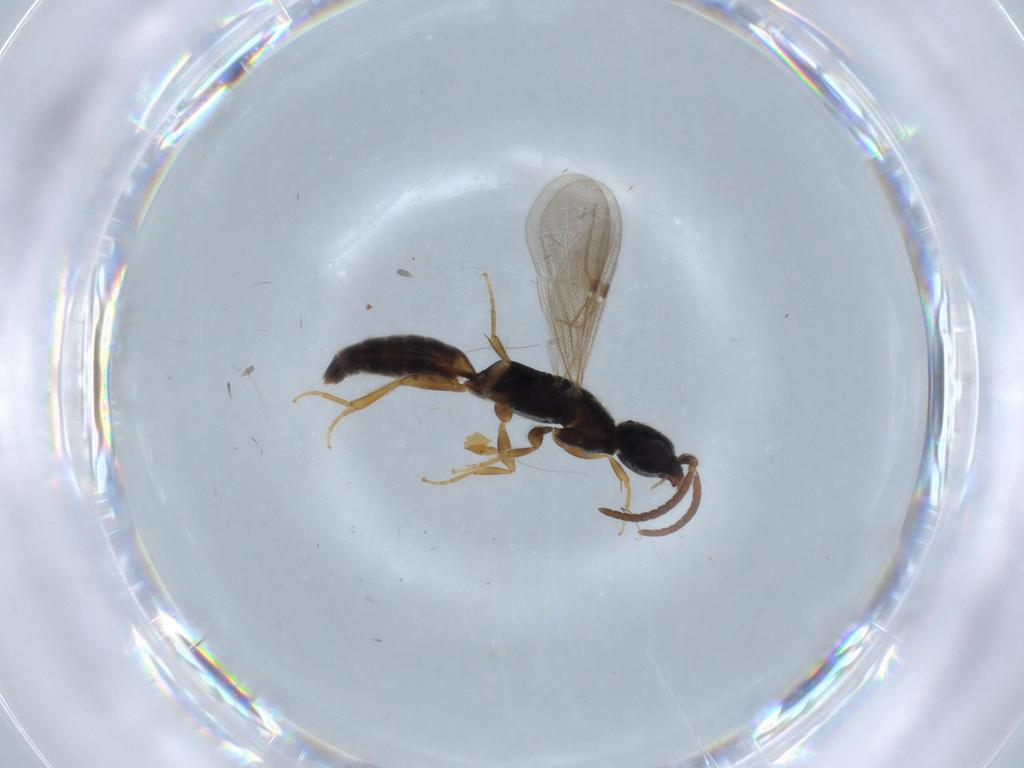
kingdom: Animalia
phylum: Arthropoda
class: Insecta
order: Hymenoptera
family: Bethylidae
